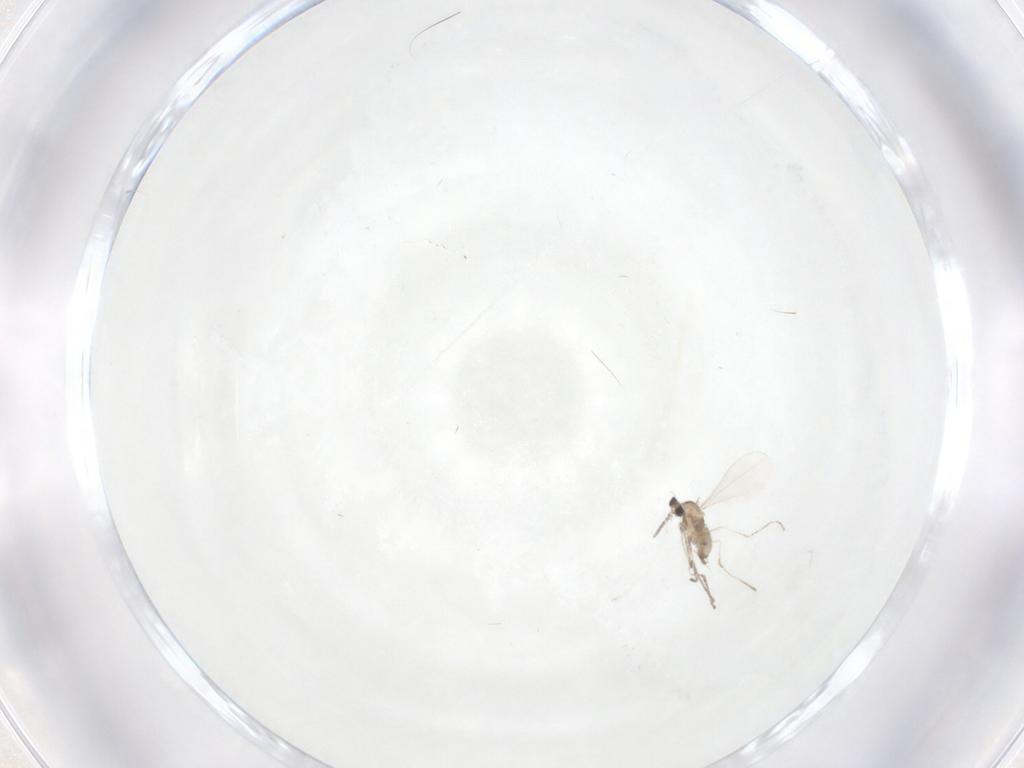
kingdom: Animalia
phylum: Arthropoda
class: Insecta
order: Diptera
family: Cecidomyiidae
